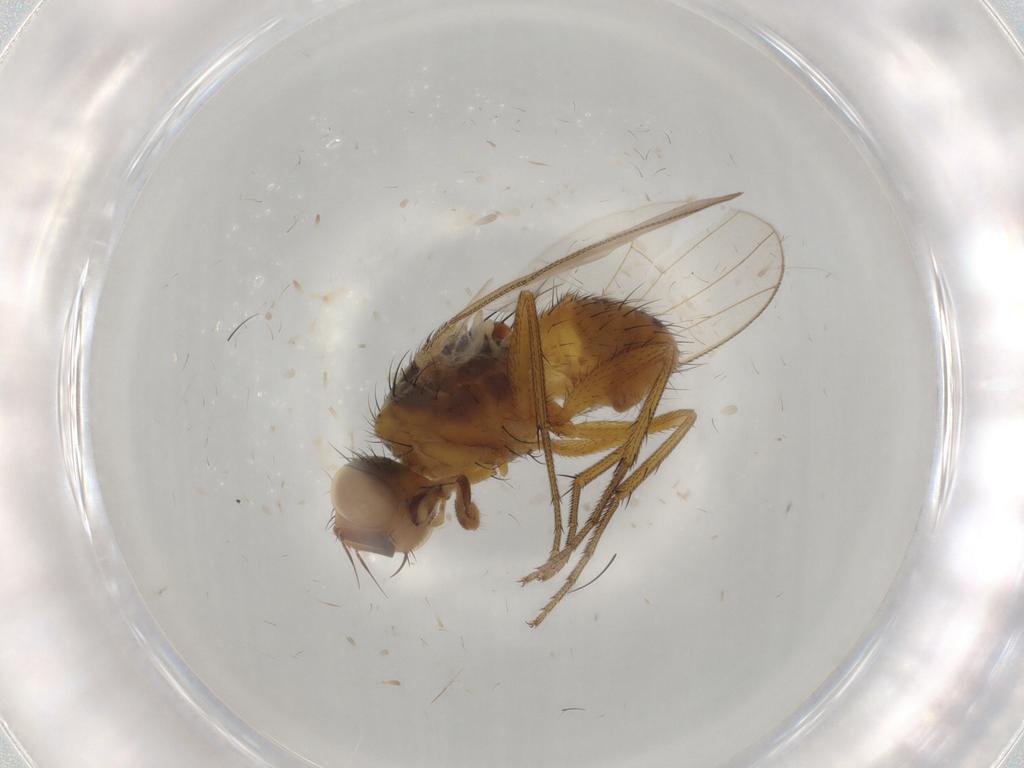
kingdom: Animalia
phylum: Arthropoda
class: Insecta
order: Diptera
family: Muscidae
